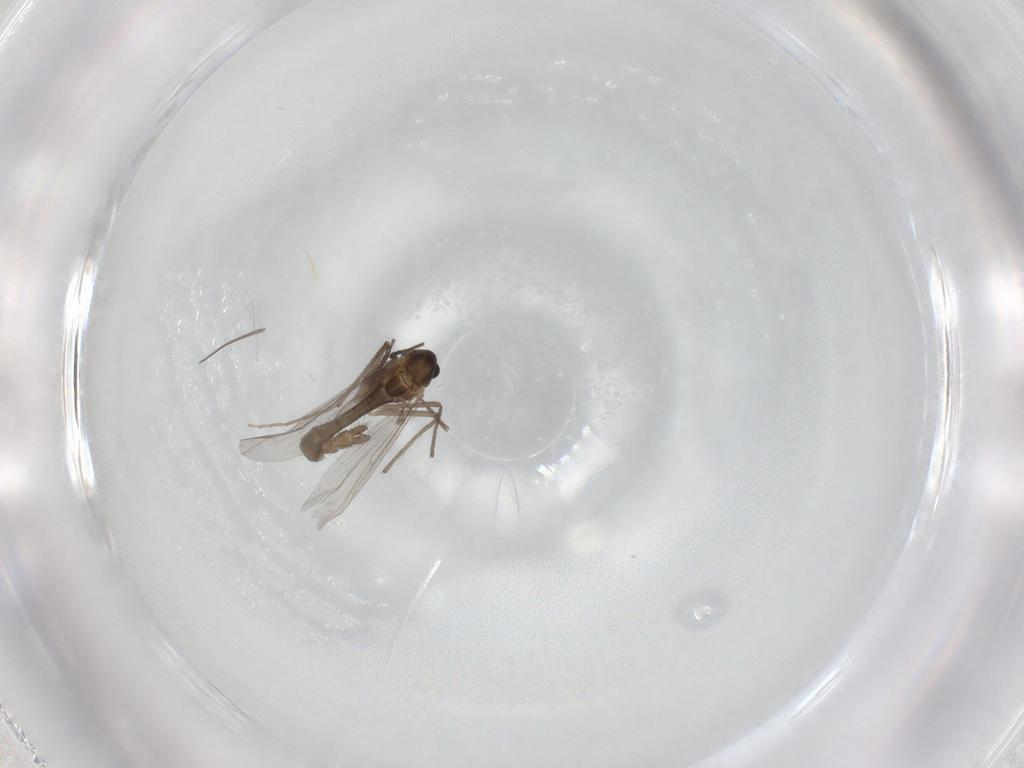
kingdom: Animalia
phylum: Arthropoda
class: Insecta
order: Diptera
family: Chironomidae
